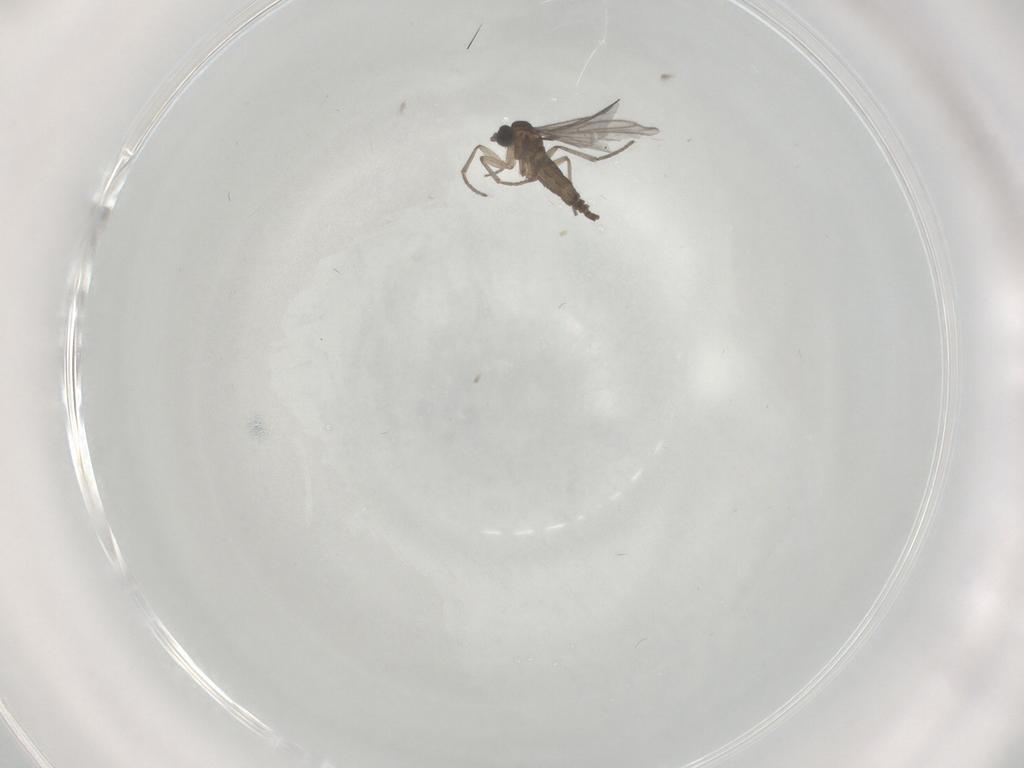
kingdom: Animalia
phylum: Arthropoda
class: Insecta
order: Diptera
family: Sciaridae
